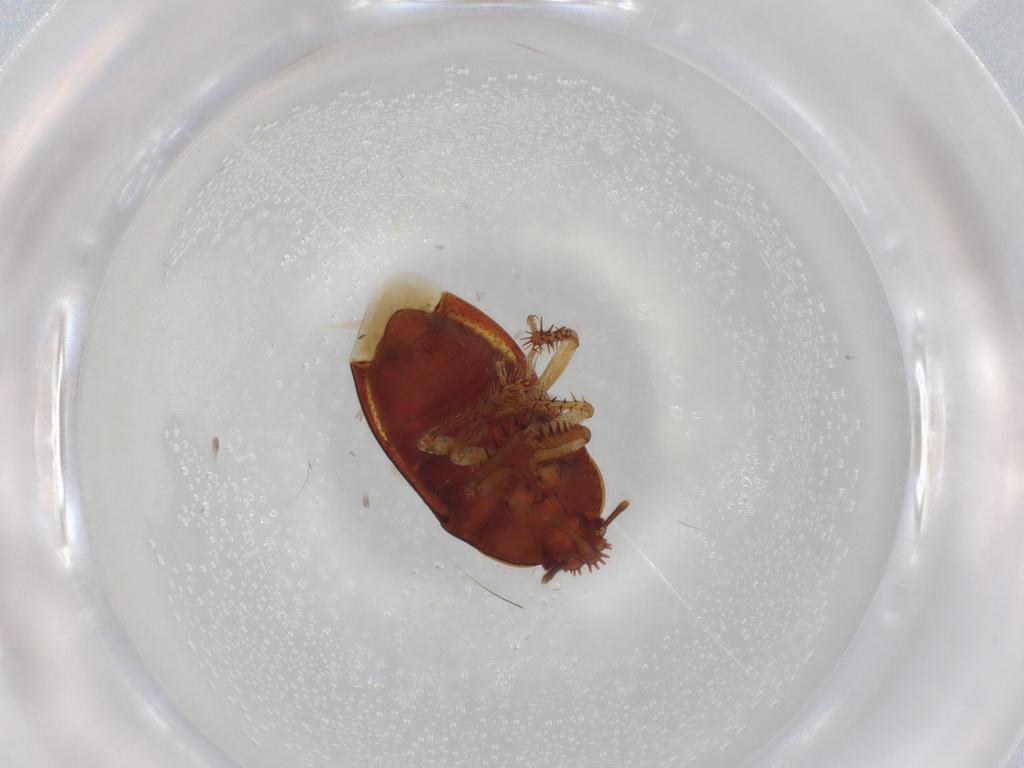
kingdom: Animalia
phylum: Arthropoda
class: Insecta
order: Hemiptera
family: Cydnidae
